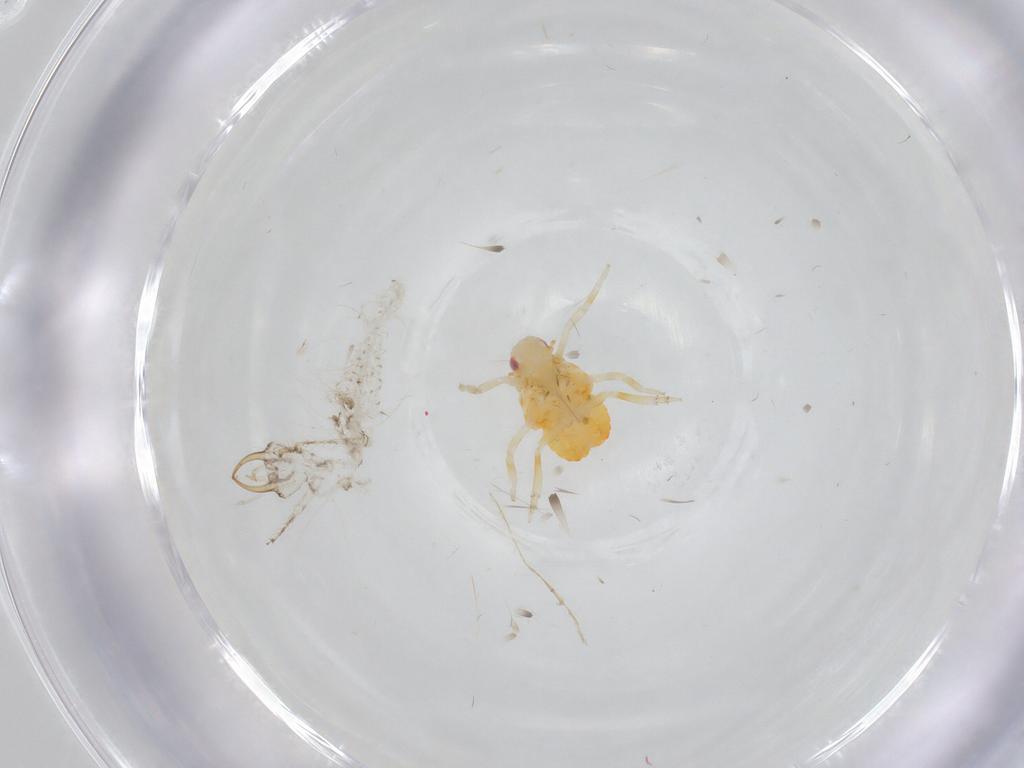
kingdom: Animalia
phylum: Arthropoda
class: Insecta
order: Hemiptera
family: Fulgoroidea_incertae_sedis
